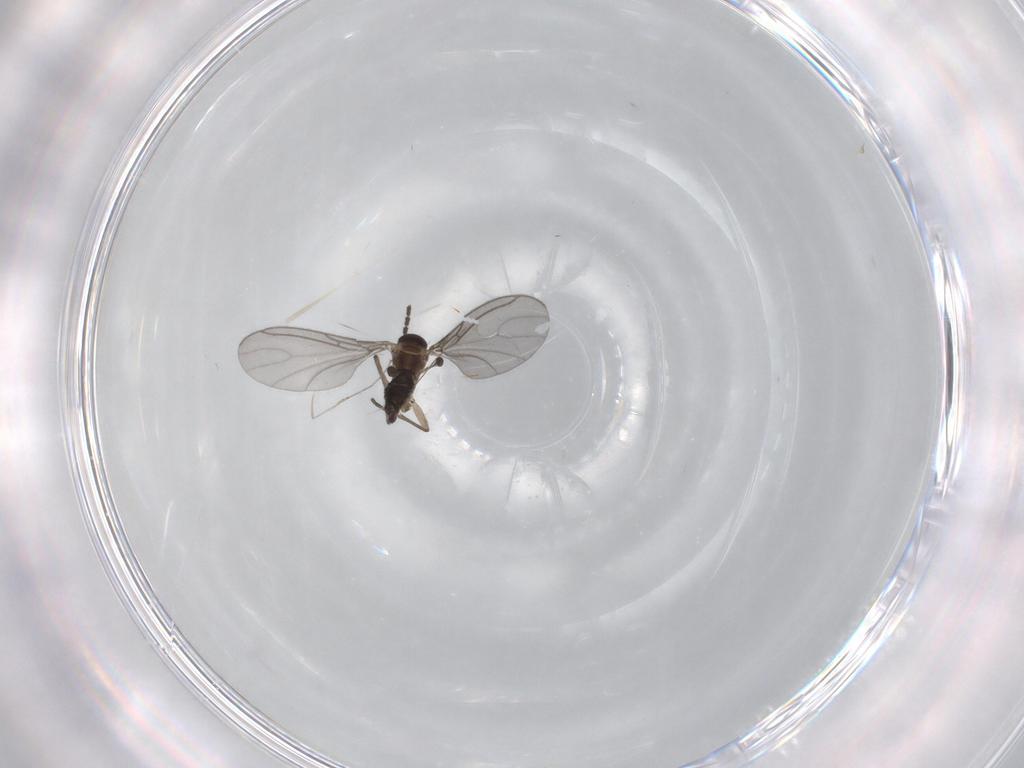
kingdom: Animalia
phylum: Arthropoda
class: Insecta
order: Diptera
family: Sciaridae
